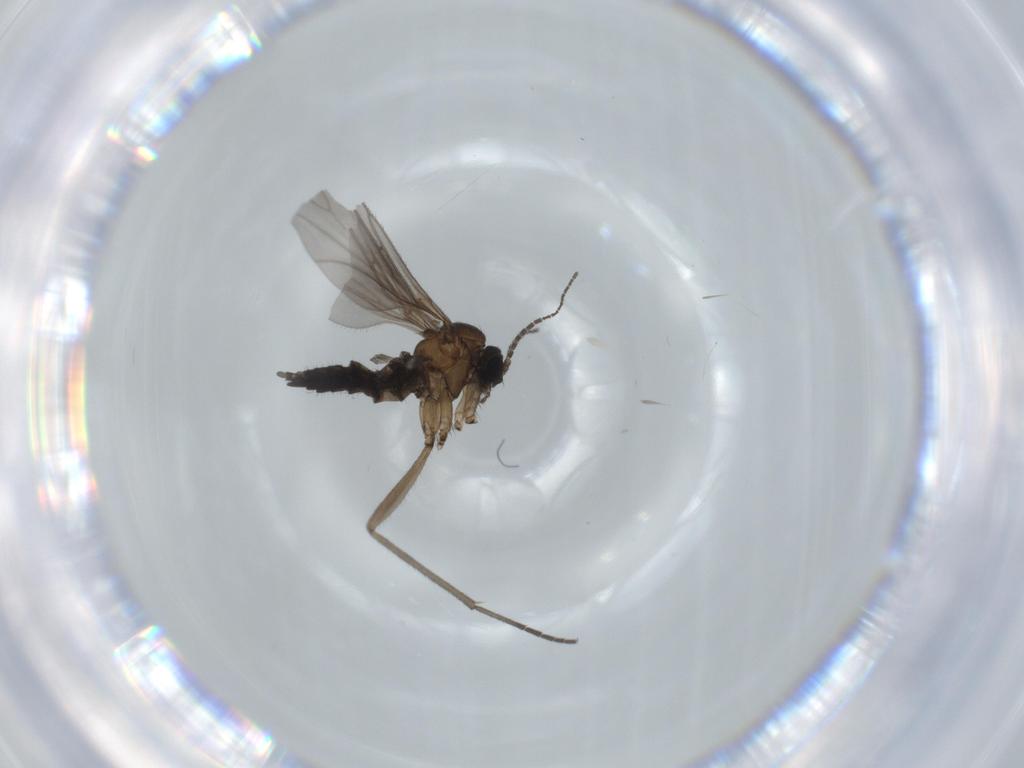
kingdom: Animalia
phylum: Arthropoda
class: Insecta
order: Diptera
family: Sciaridae
